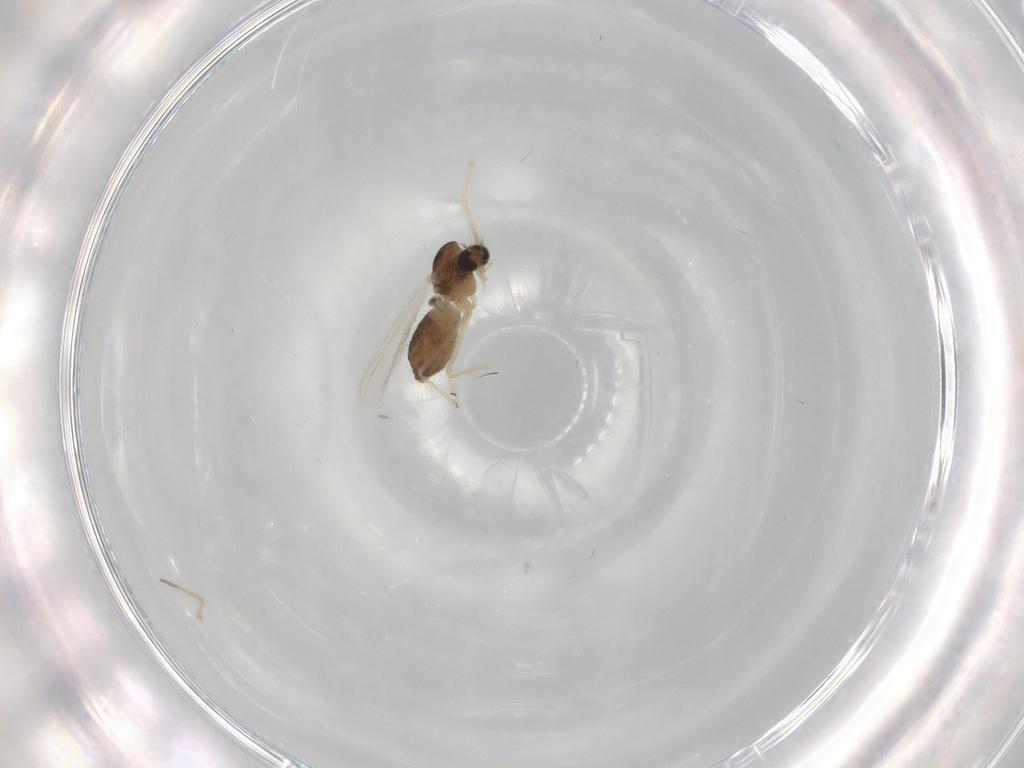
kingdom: Animalia
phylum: Arthropoda
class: Insecta
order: Diptera
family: Chironomidae
